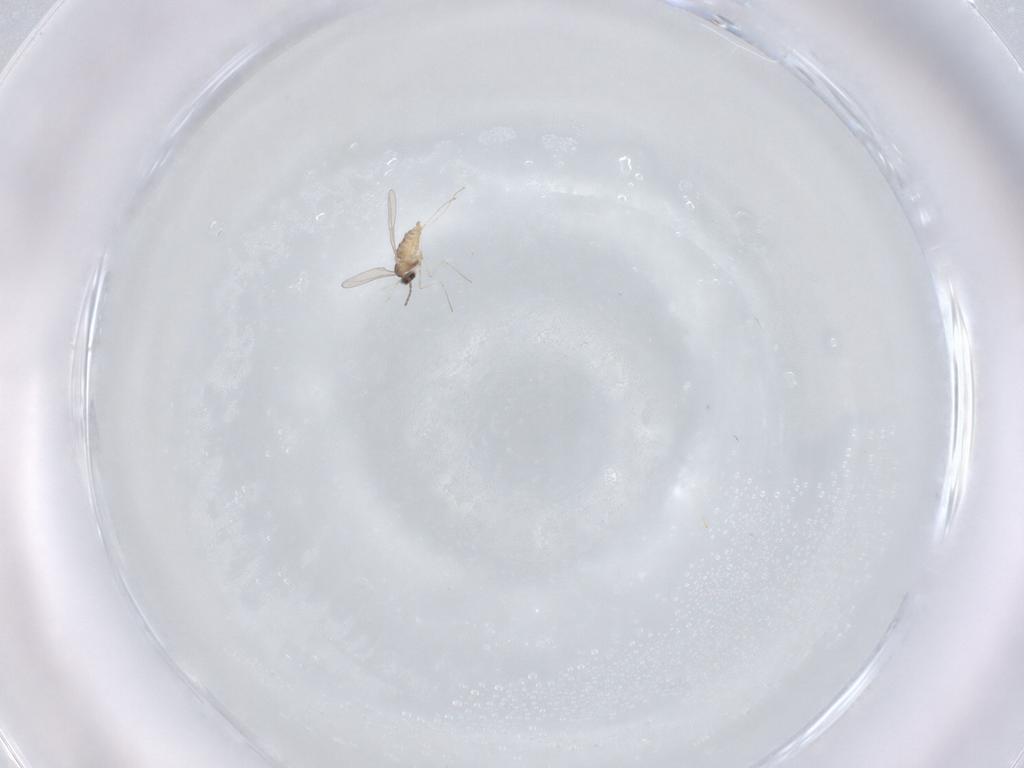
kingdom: Animalia
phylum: Arthropoda
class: Insecta
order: Diptera
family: Cecidomyiidae
